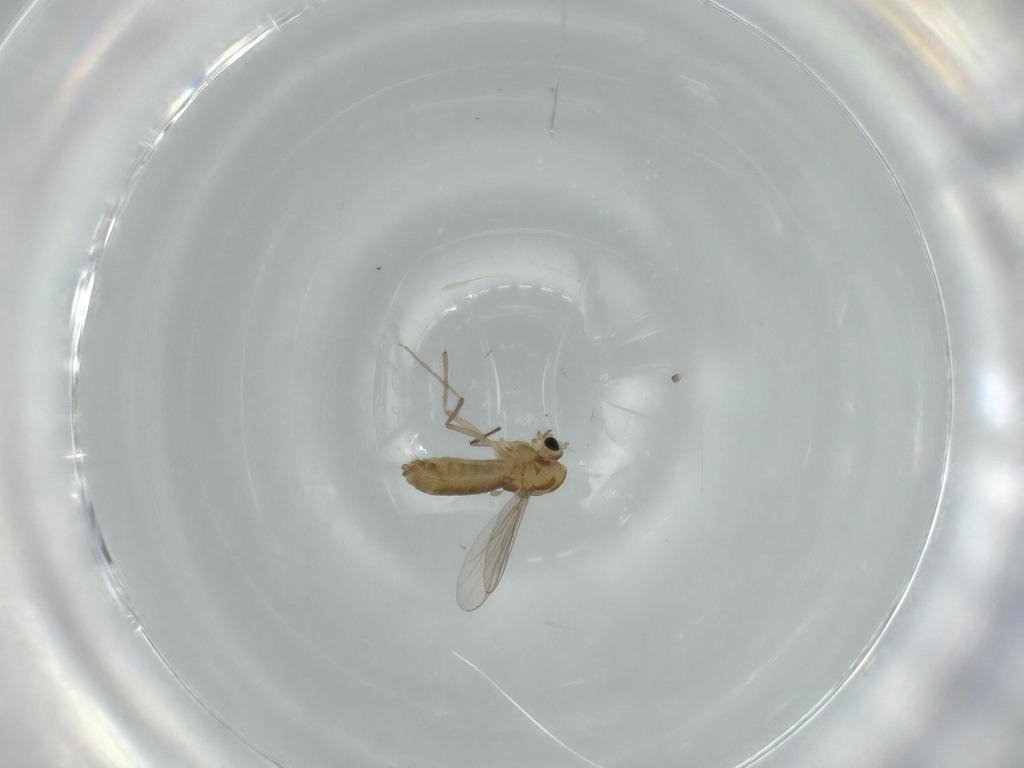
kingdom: Animalia
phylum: Arthropoda
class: Insecta
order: Diptera
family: Chironomidae
